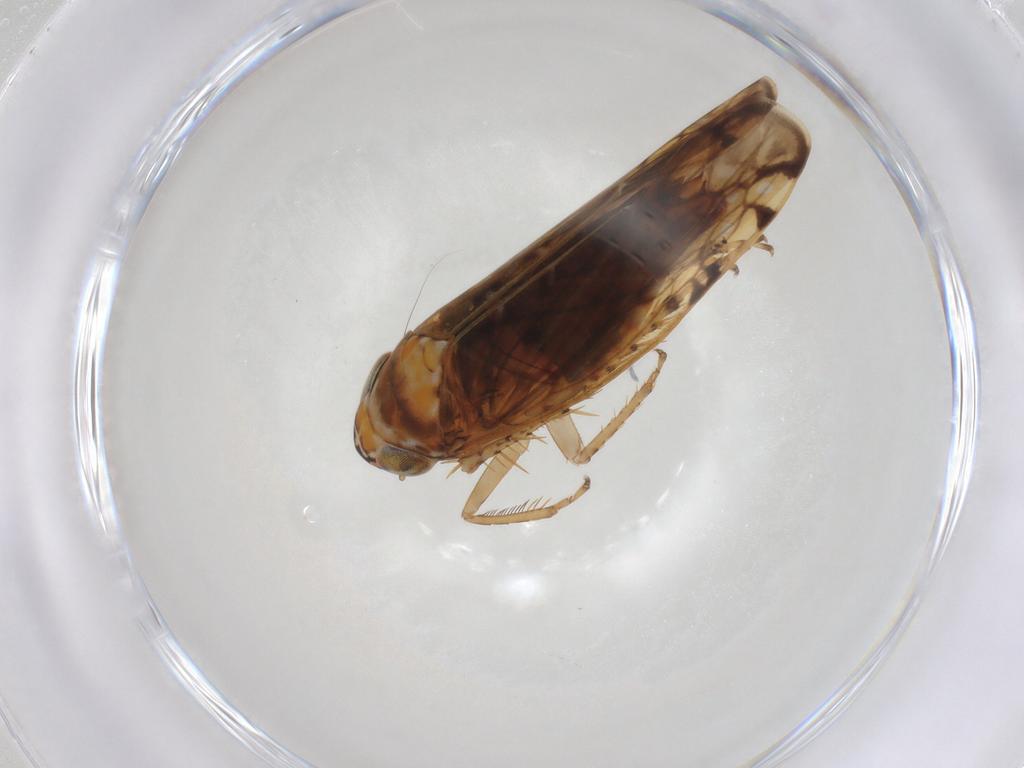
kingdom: Animalia
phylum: Arthropoda
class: Insecta
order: Hemiptera
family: Cicadellidae
